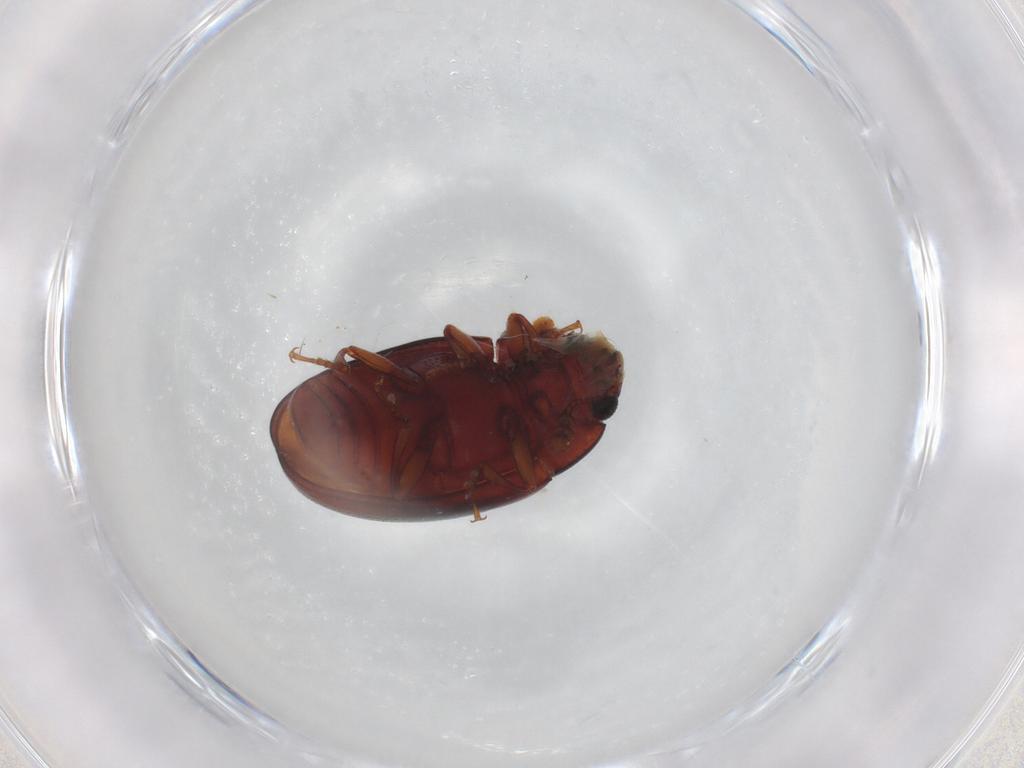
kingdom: Animalia
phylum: Arthropoda
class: Insecta
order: Coleoptera
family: Erotylidae
